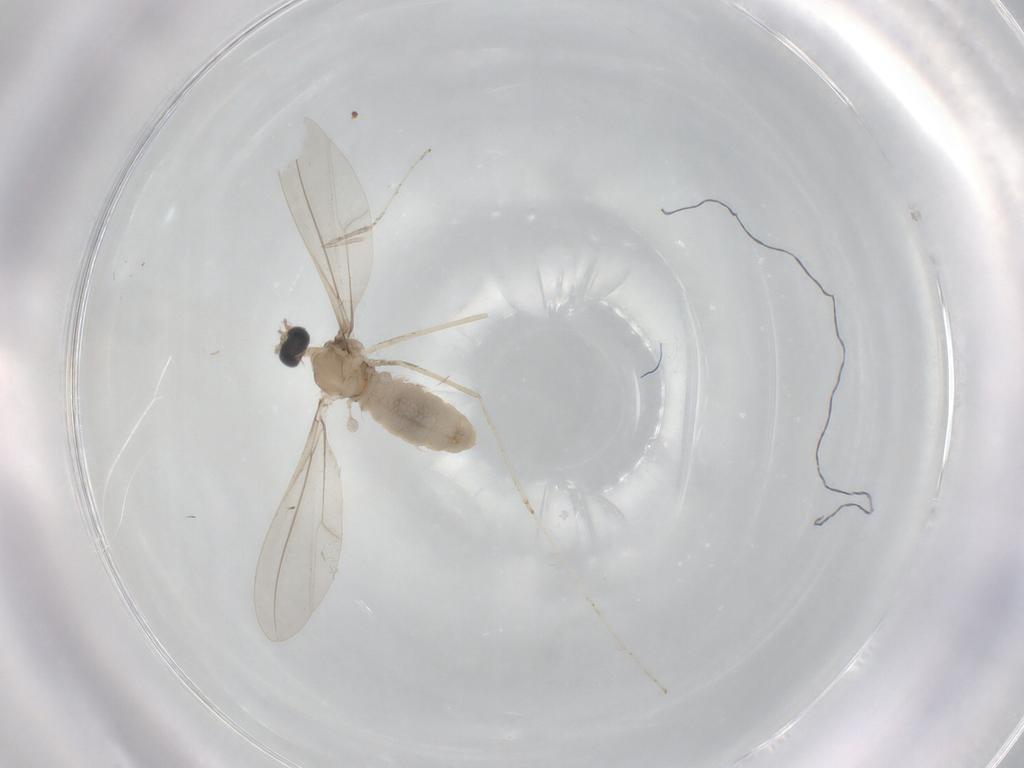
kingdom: Animalia
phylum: Arthropoda
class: Insecta
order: Diptera
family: Cecidomyiidae
